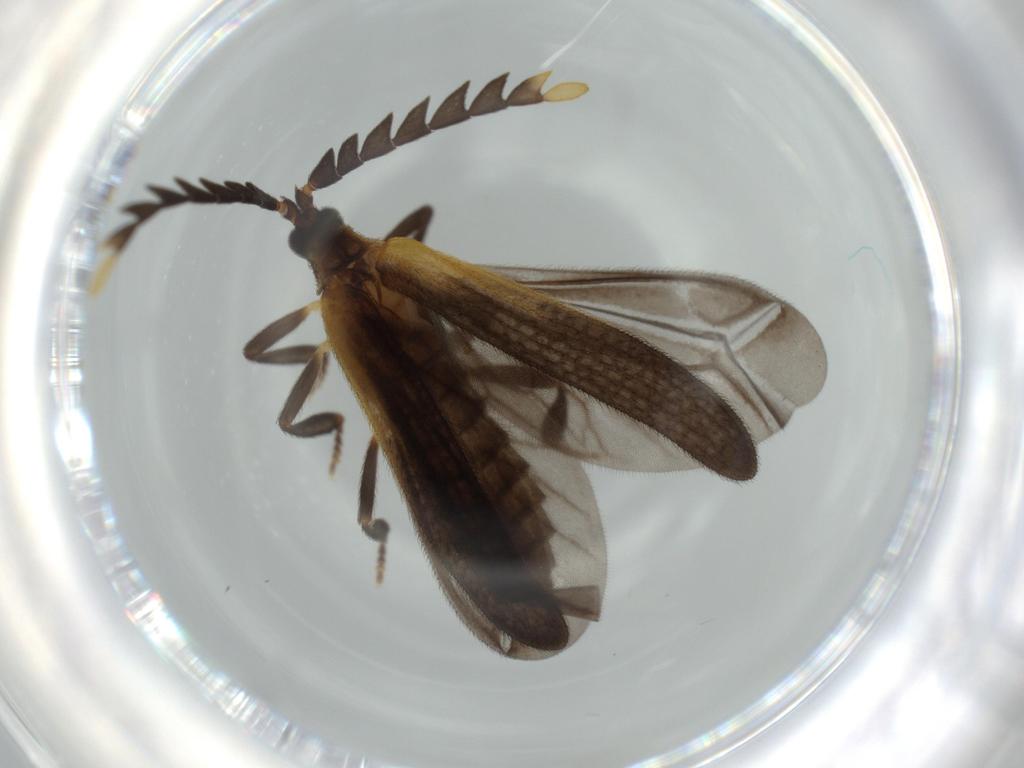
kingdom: Animalia
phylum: Arthropoda
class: Insecta
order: Coleoptera
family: Lycidae
